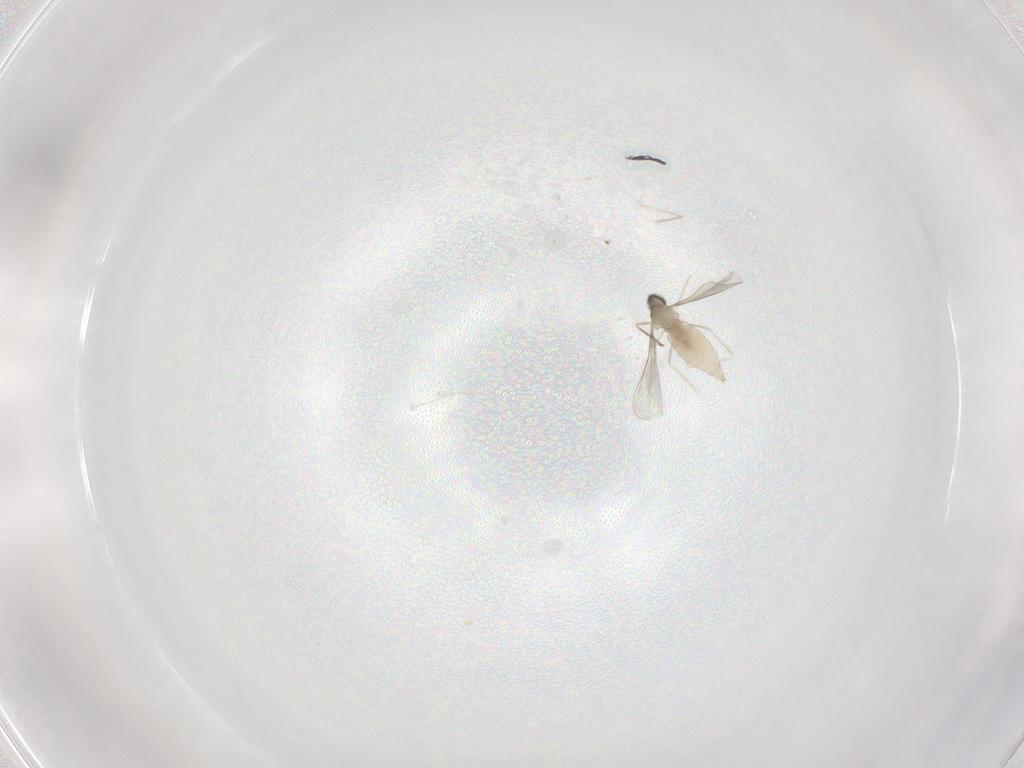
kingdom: Animalia
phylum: Arthropoda
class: Insecta
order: Diptera
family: Cecidomyiidae
